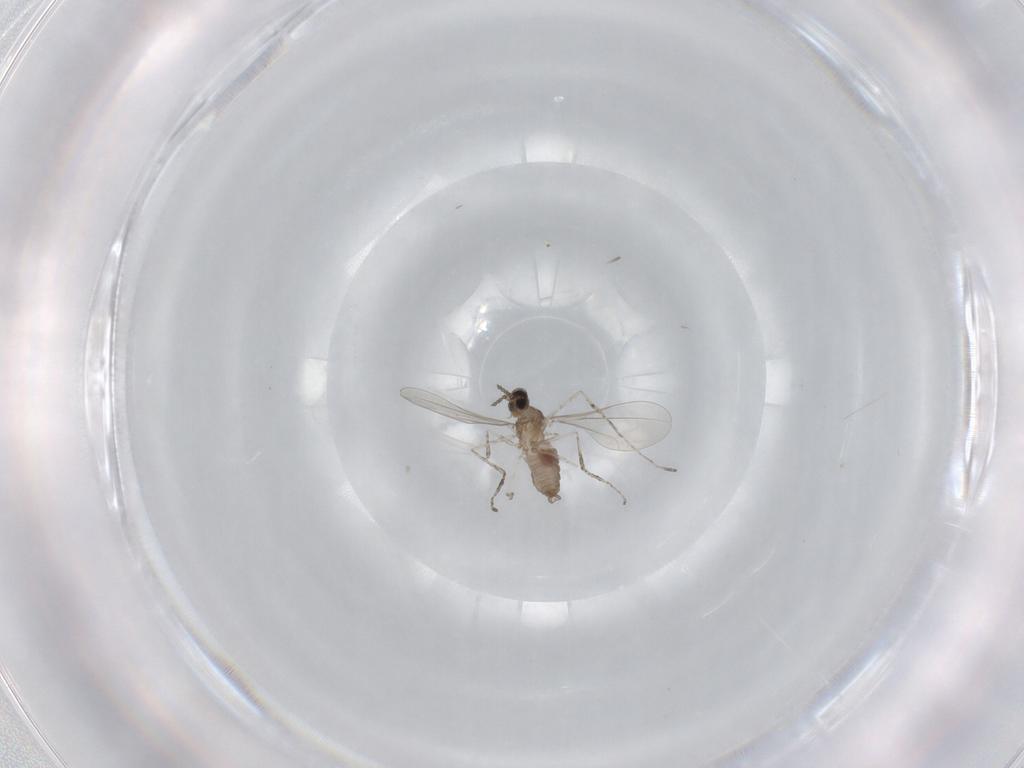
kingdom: Animalia
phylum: Arthropoda
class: Insecta
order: Diptera
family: Cecidomyiidae
